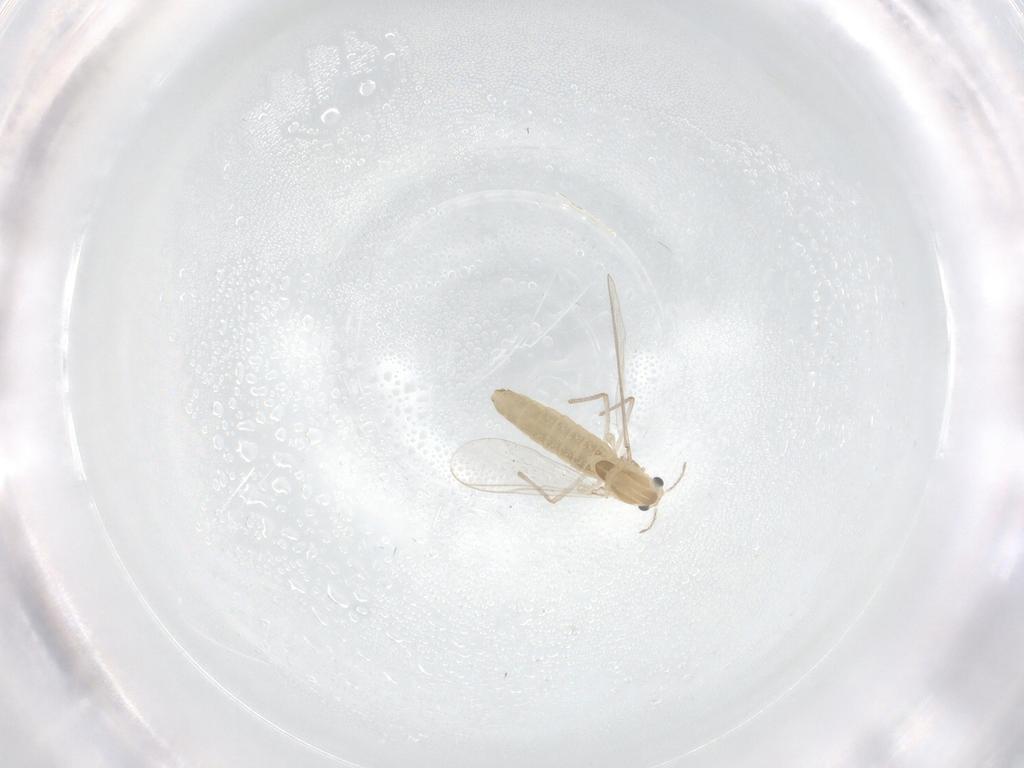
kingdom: Animalia
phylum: Arthropoda
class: Insecta
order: Diptera
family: Chironomidae
